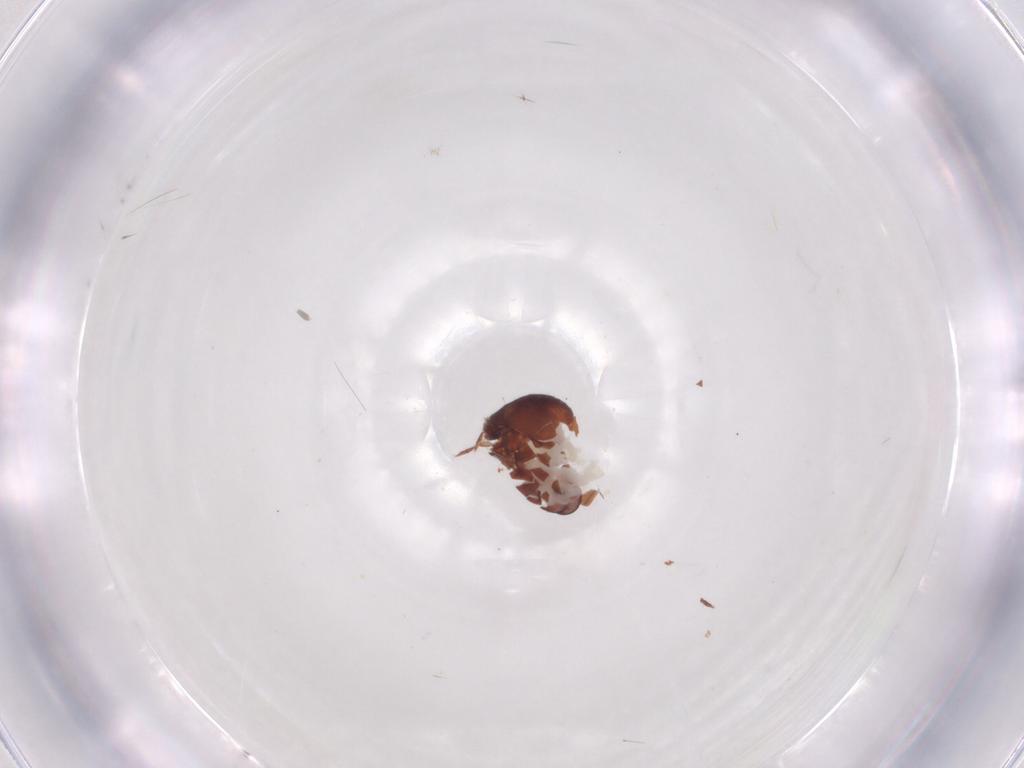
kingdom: Animalia
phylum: Arthropoda
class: Arachnida
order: Sarcoptiformes
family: Humerobatidae
